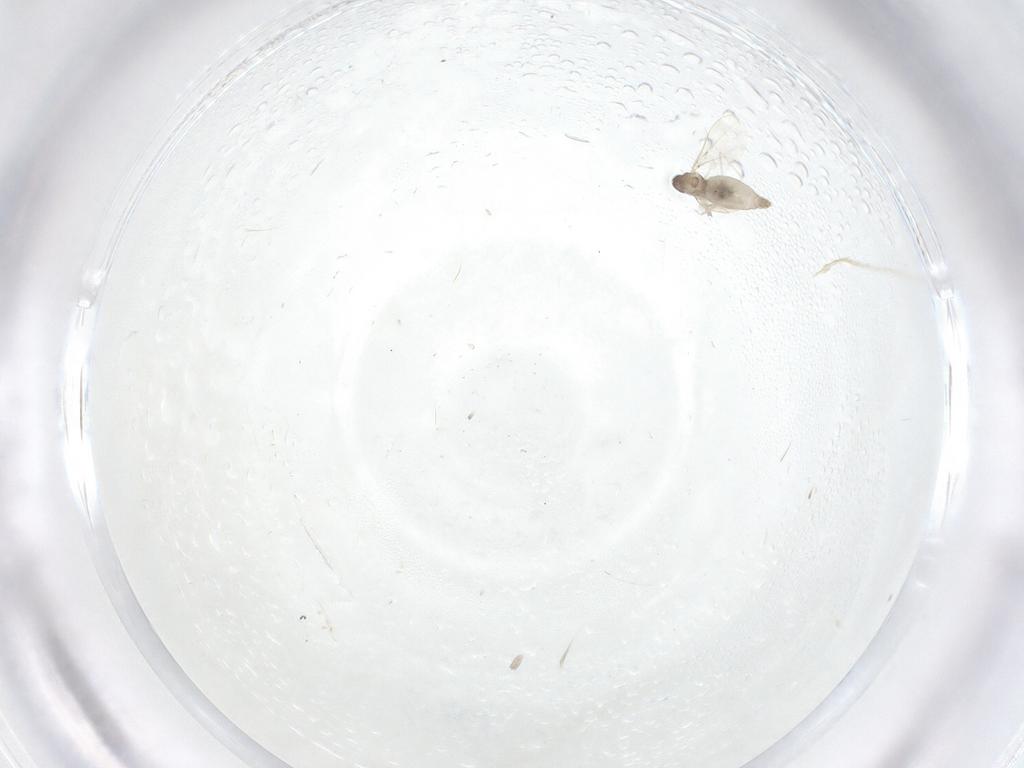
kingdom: Animalia
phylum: Arthropoda
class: Insecta
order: Diptera
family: Cecidomyiidae
